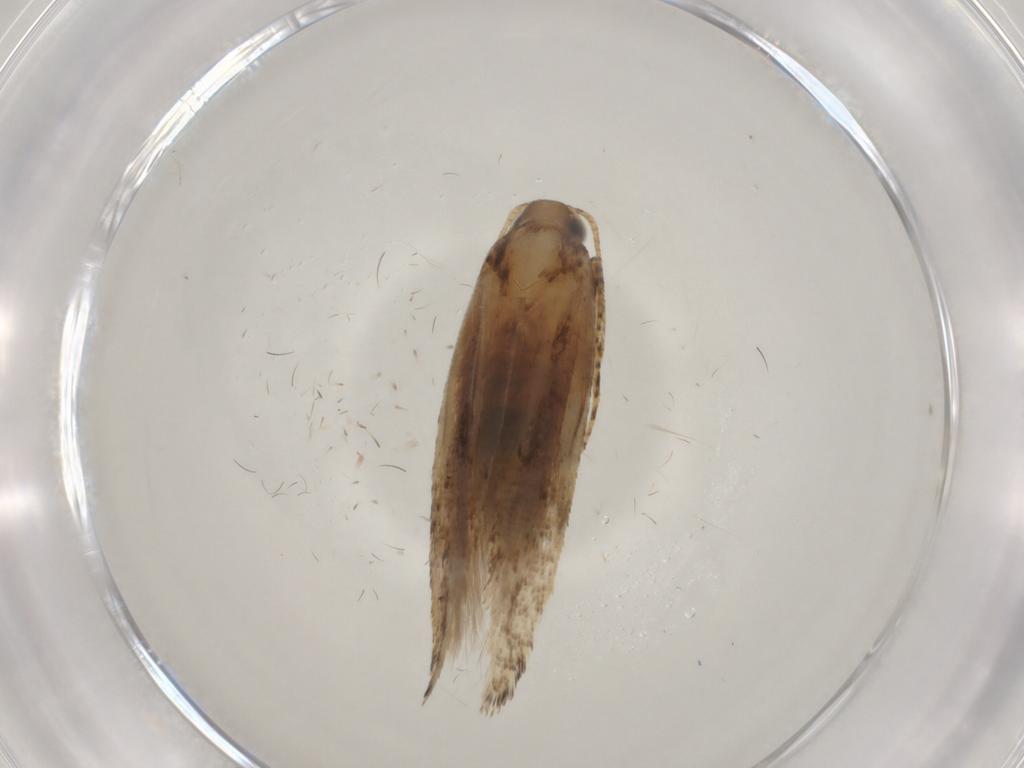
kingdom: Animalia
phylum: Arthropoda
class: Insecta
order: Lepidoptera
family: Gelechiidae
